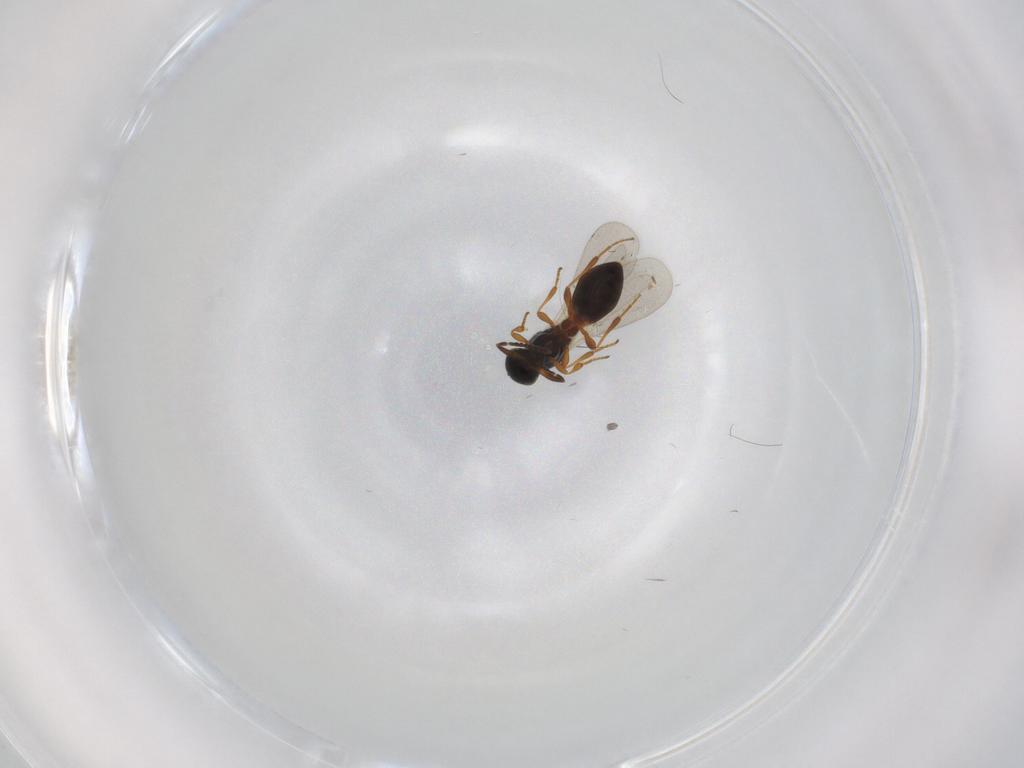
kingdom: Animalia
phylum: Arthropoda
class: Insecta
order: Hymenoptera
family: Platygastridae
